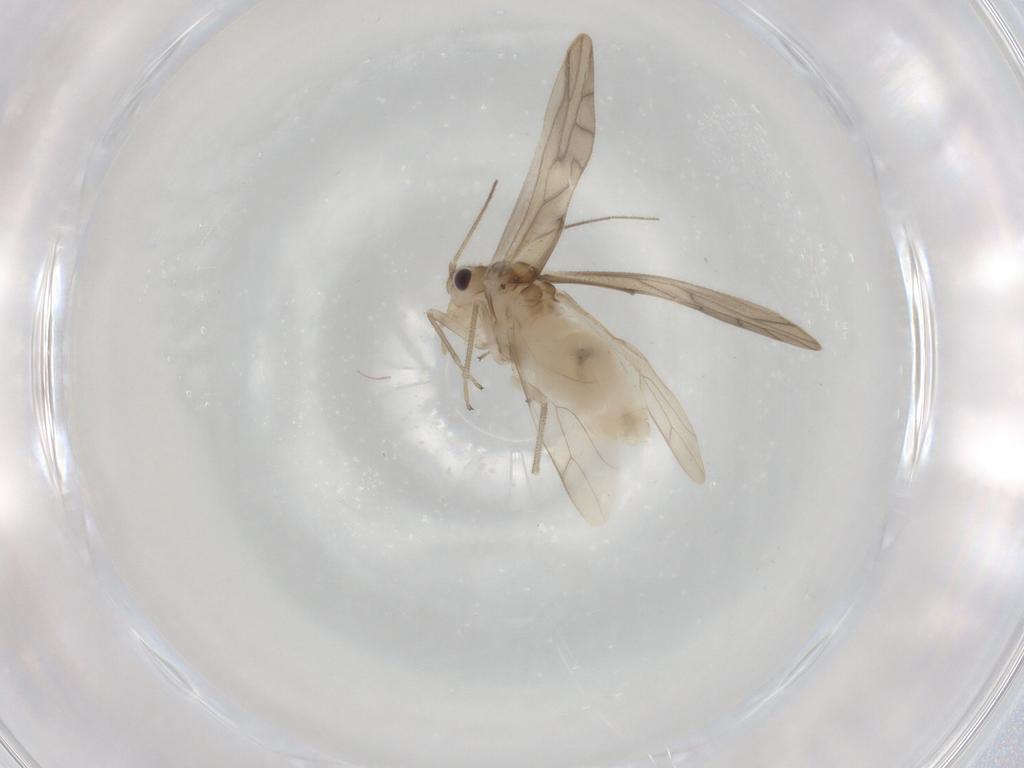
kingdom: Animalia
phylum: Arthropoda
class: Insecta
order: Psocodea
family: Caeciliusidae
